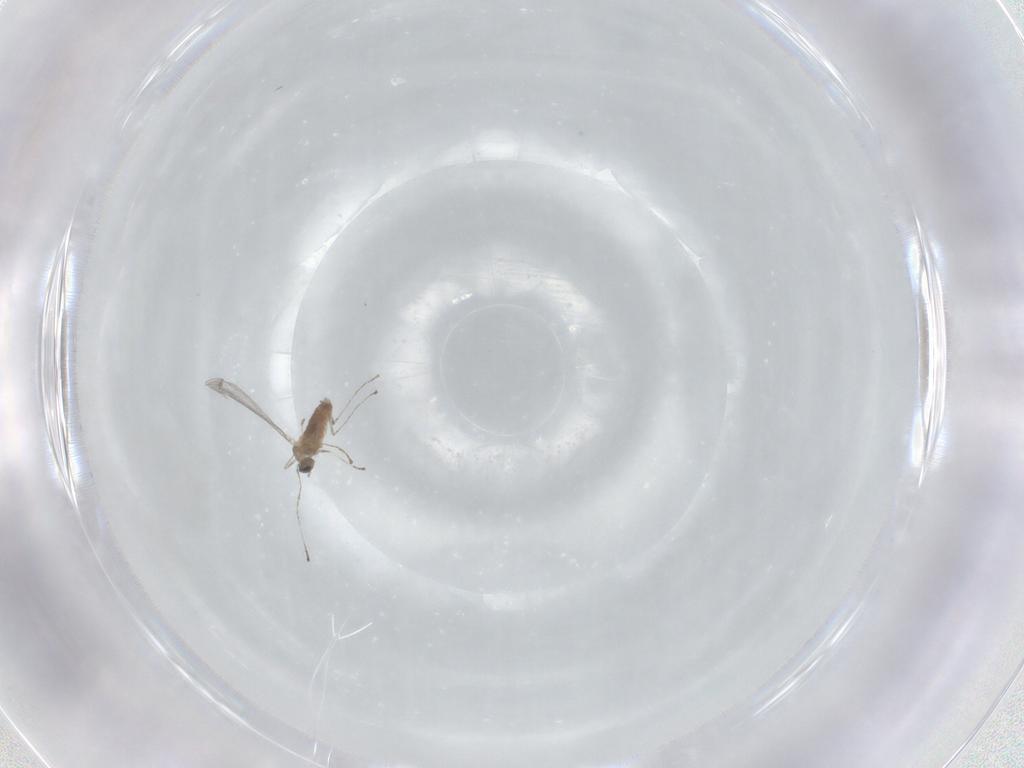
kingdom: Animalia
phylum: Arthropoda
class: Insecta
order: Diptera
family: Cecidomyiidae
